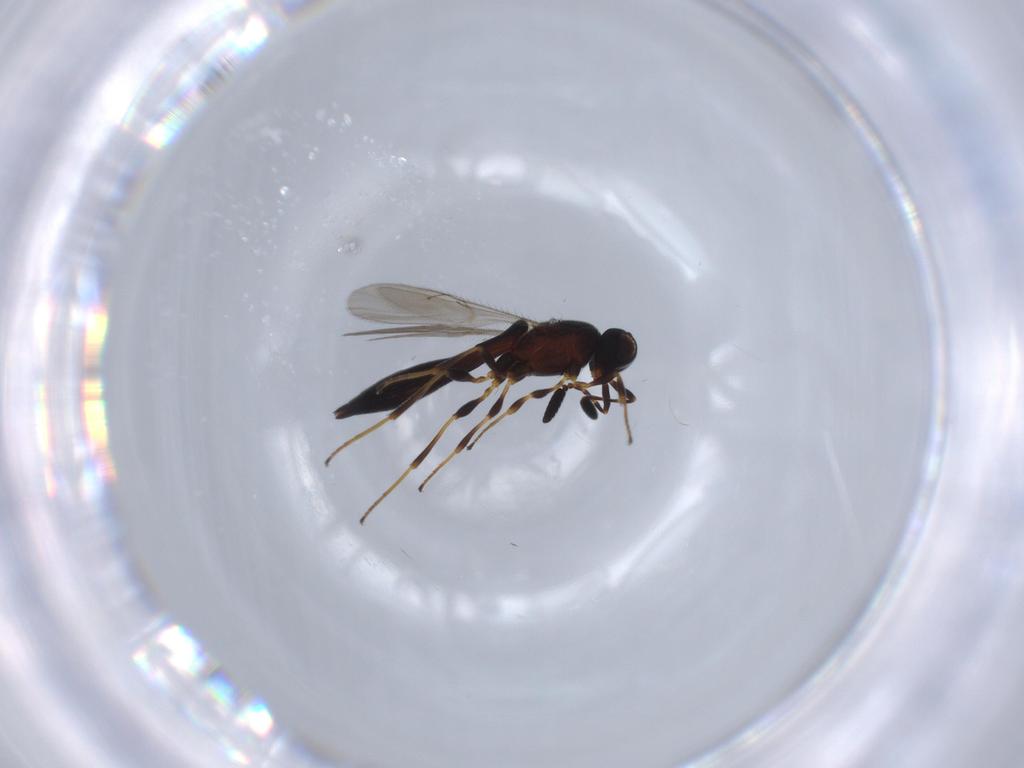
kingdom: Animalia
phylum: Arthropoda
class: Insecta
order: Hymenoptera
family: Scelionidae
